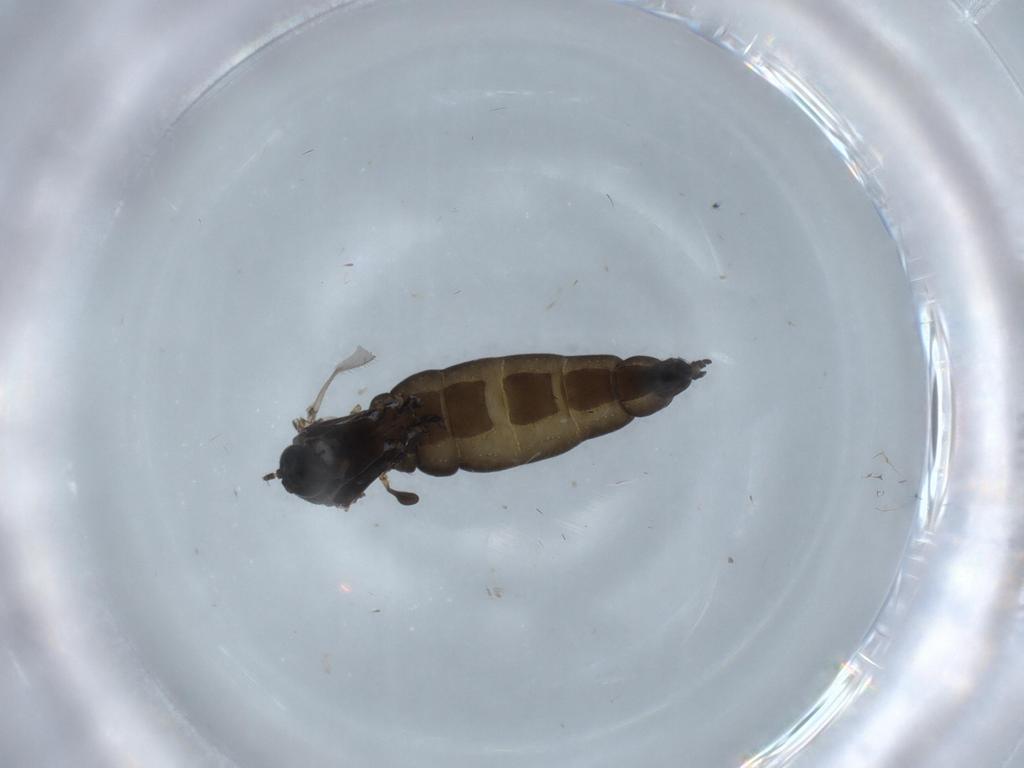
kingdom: Animalia
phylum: Arthropoda
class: Insecta
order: Diptera
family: Sciaridae
